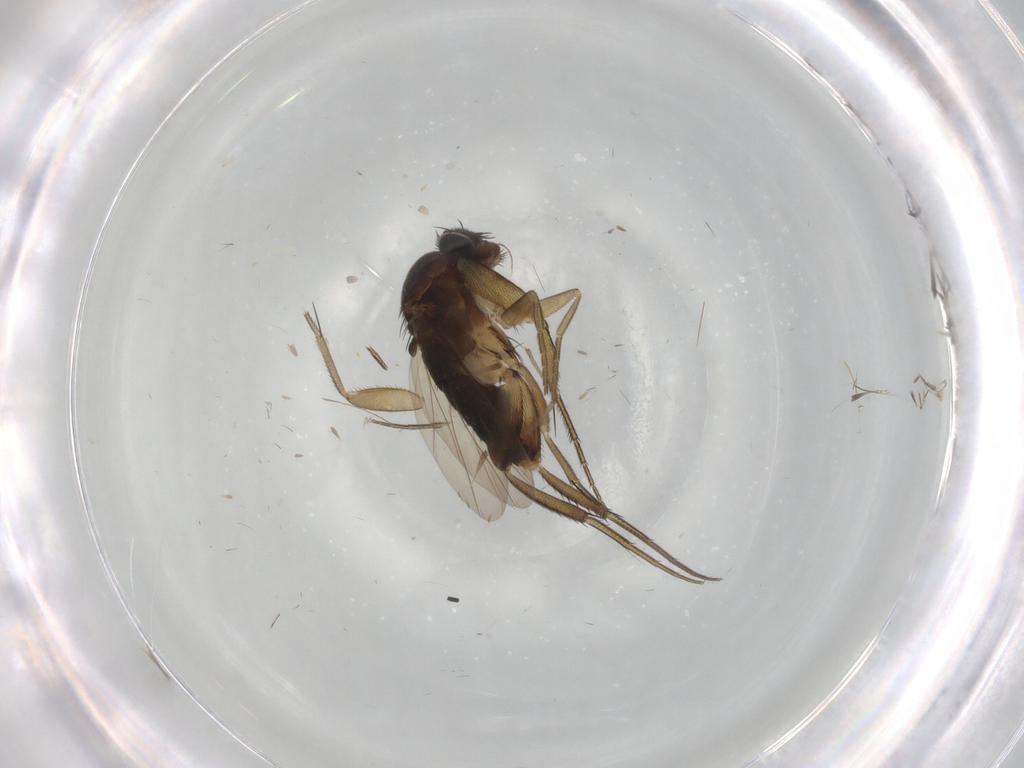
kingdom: Animalia
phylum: Arthropoda
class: Insecta
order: Diptera
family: Phoridae
